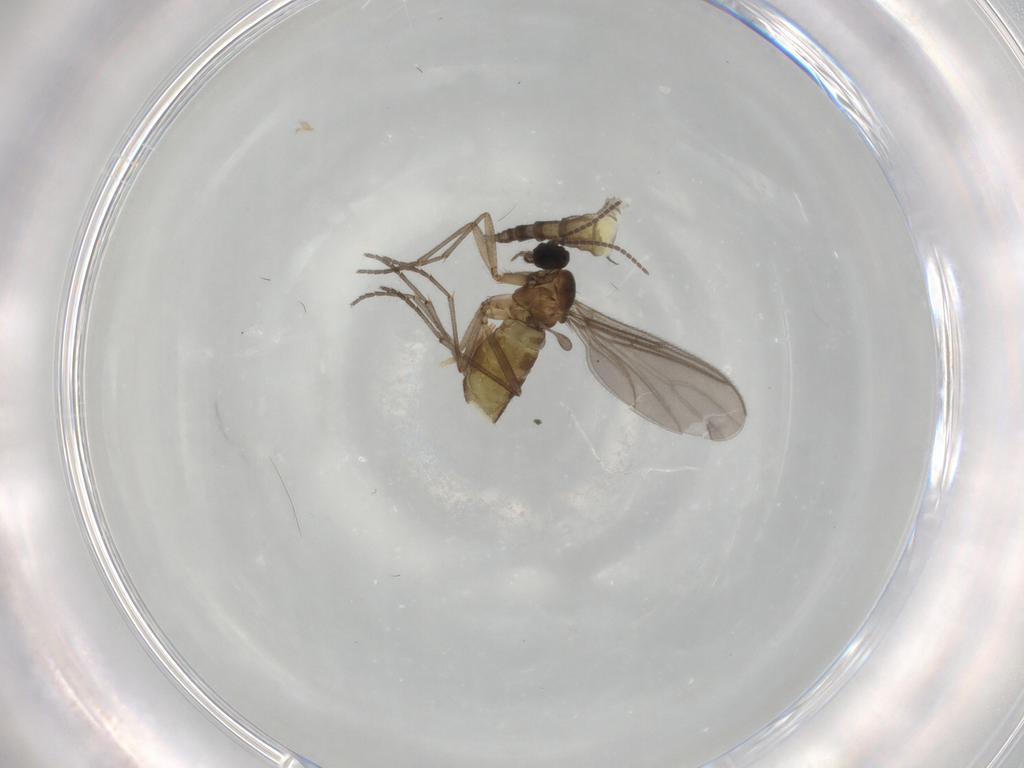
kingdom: Animalia
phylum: Arthropoda
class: Insecta
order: Diptera
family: Sciaridae
